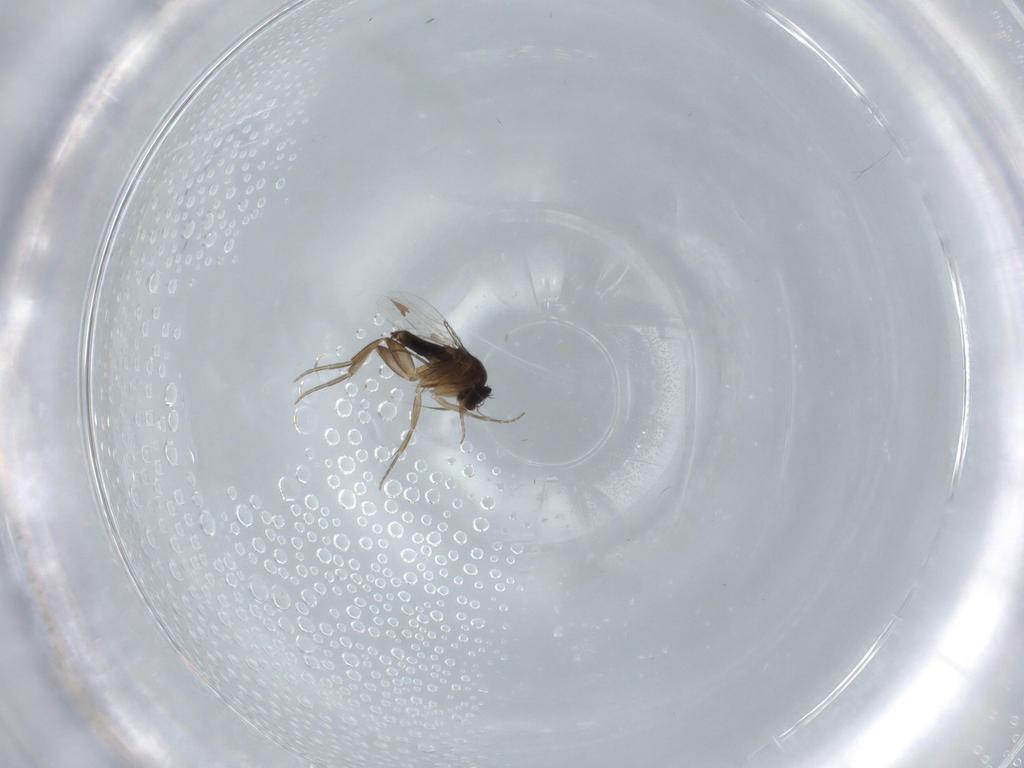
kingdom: Animalia
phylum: Arthropoda
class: Insecta
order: Diptera
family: Phoridae
